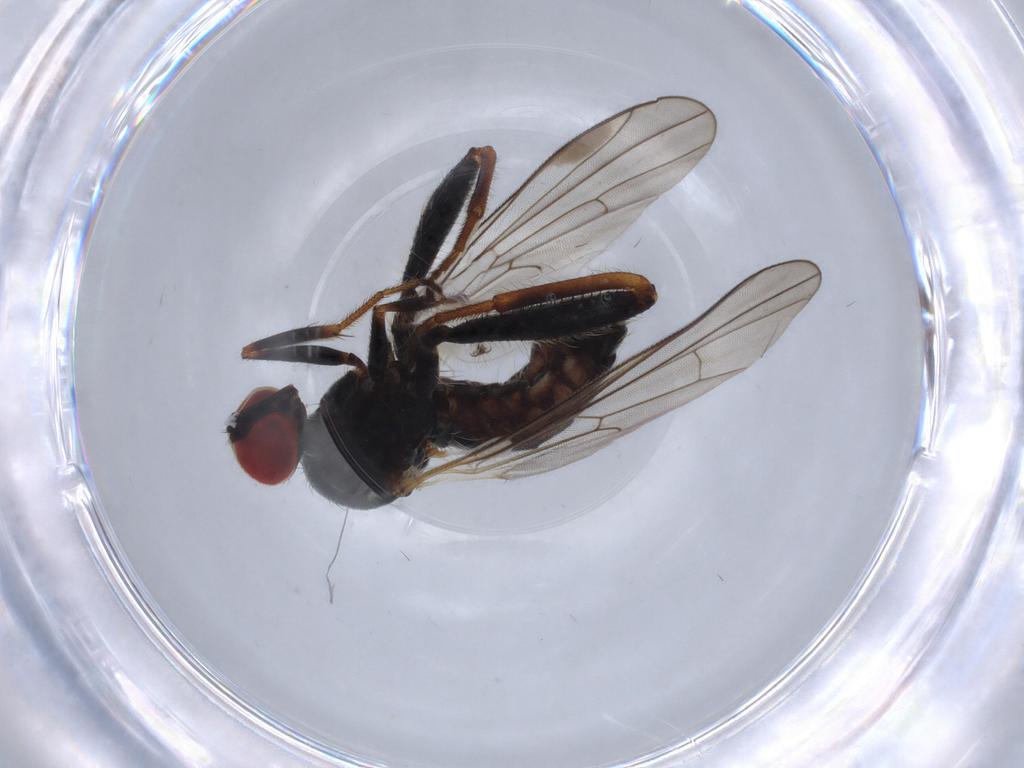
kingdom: Animalia
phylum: Arthropoda
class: Insecta
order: Diptera
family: Hybotidae
